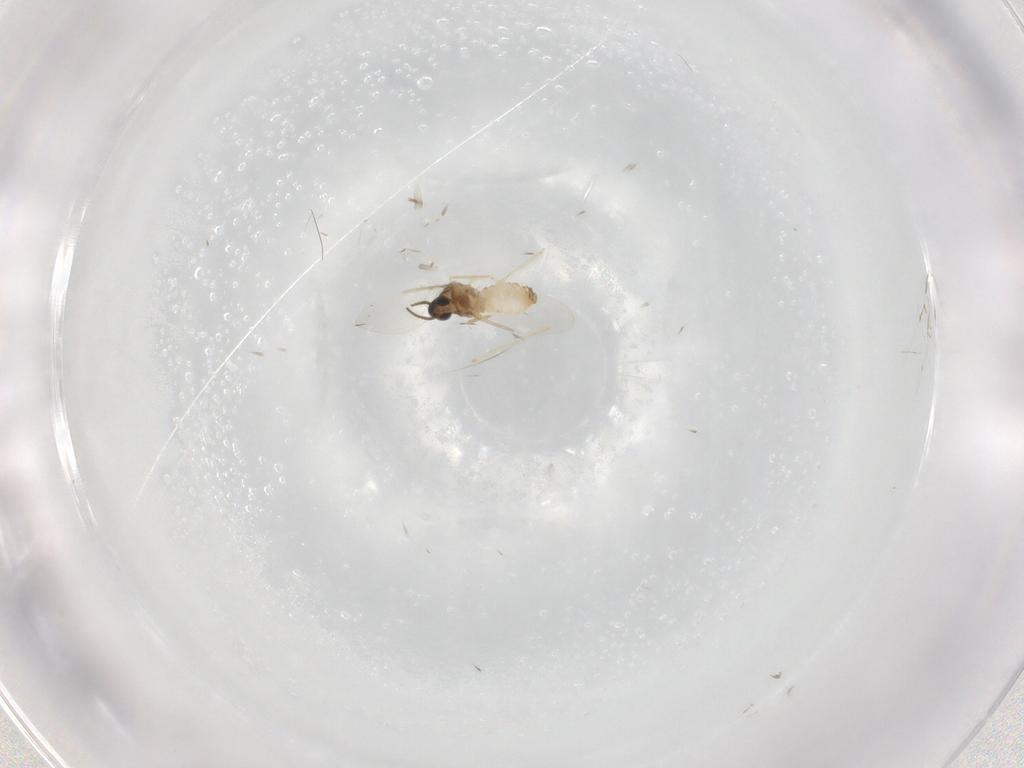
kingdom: Animalia
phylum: Arthropoda
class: Insecta
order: Diptera
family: Cecidomyiidae
